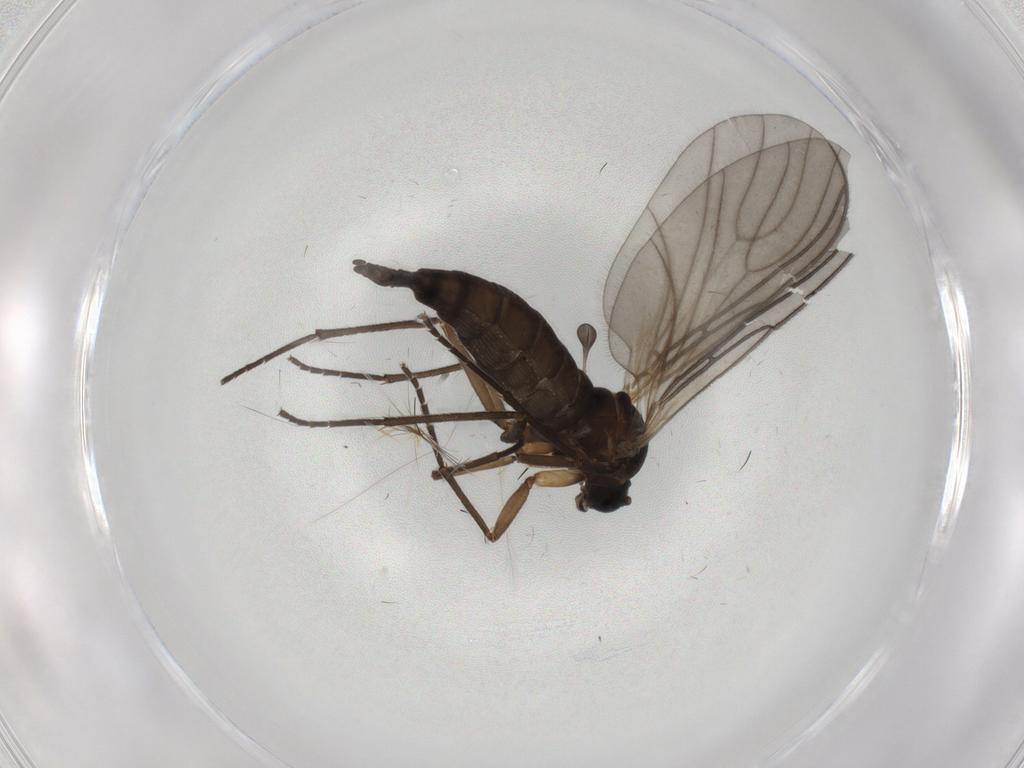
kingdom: Animalia
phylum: Arthropoda
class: Insecta
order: Diptera
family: Sciaridae
